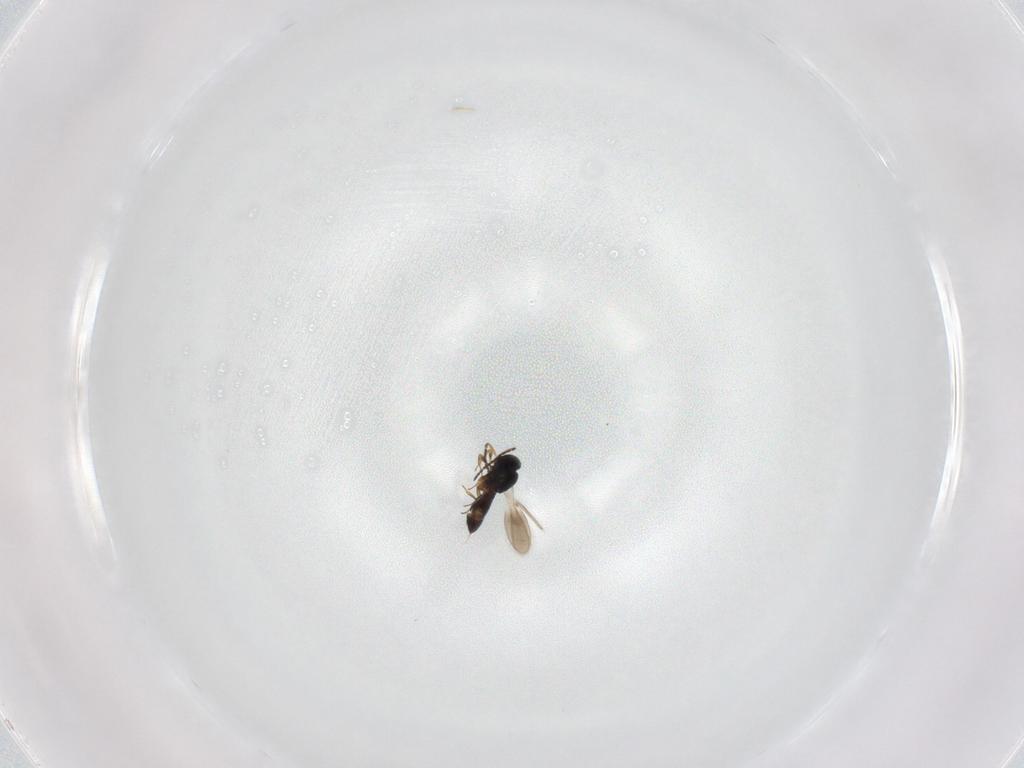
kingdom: Animalia
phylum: Arthropoda
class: Insecta
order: Hymenoptera
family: Scelionidae
